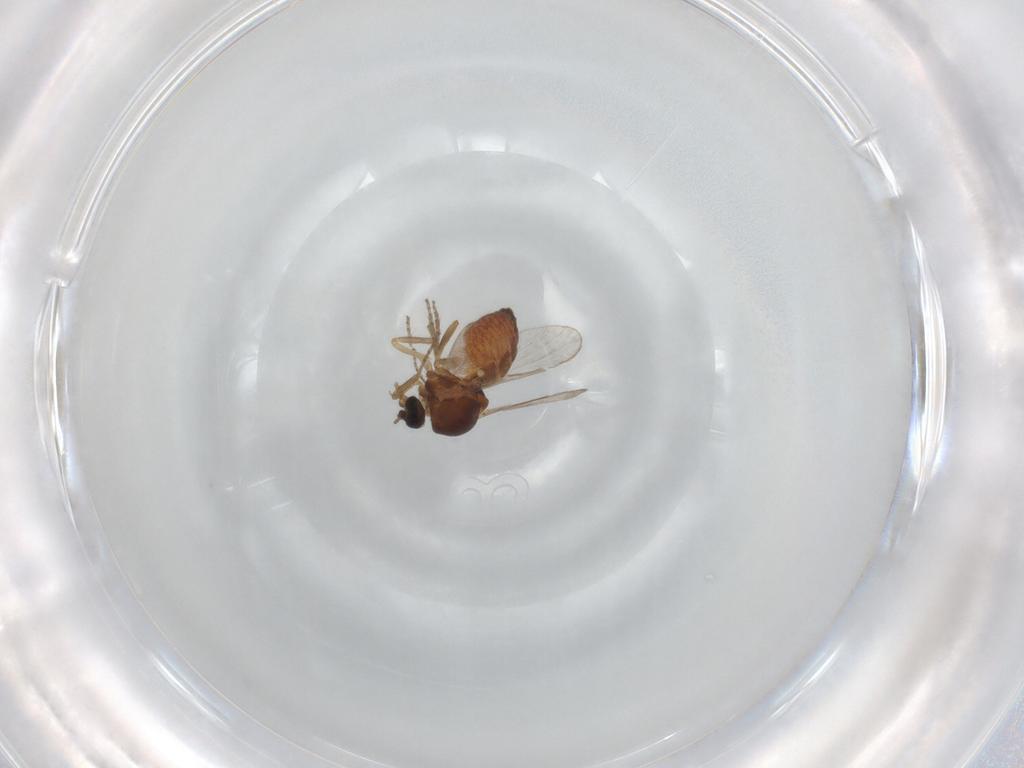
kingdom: Animalia
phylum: Arthropoda
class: Insecta
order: Diptera
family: Ceratopogonidae
